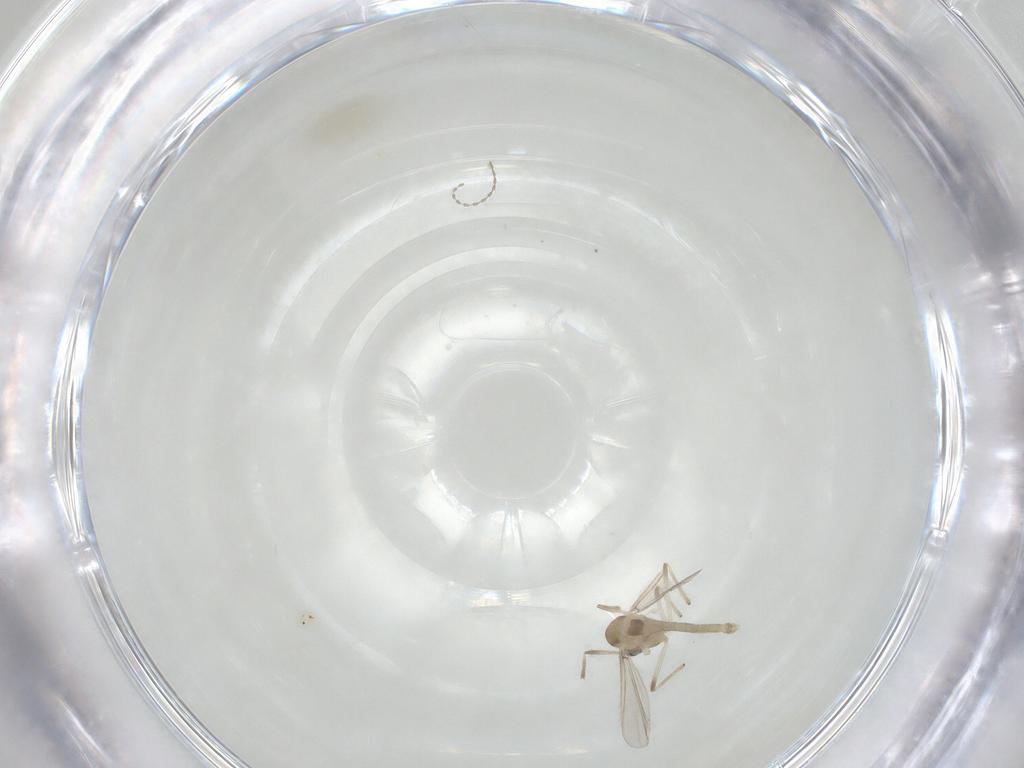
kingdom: Animalia
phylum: Arthropoda
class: Insecta
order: Diptera
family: Chironomidae
